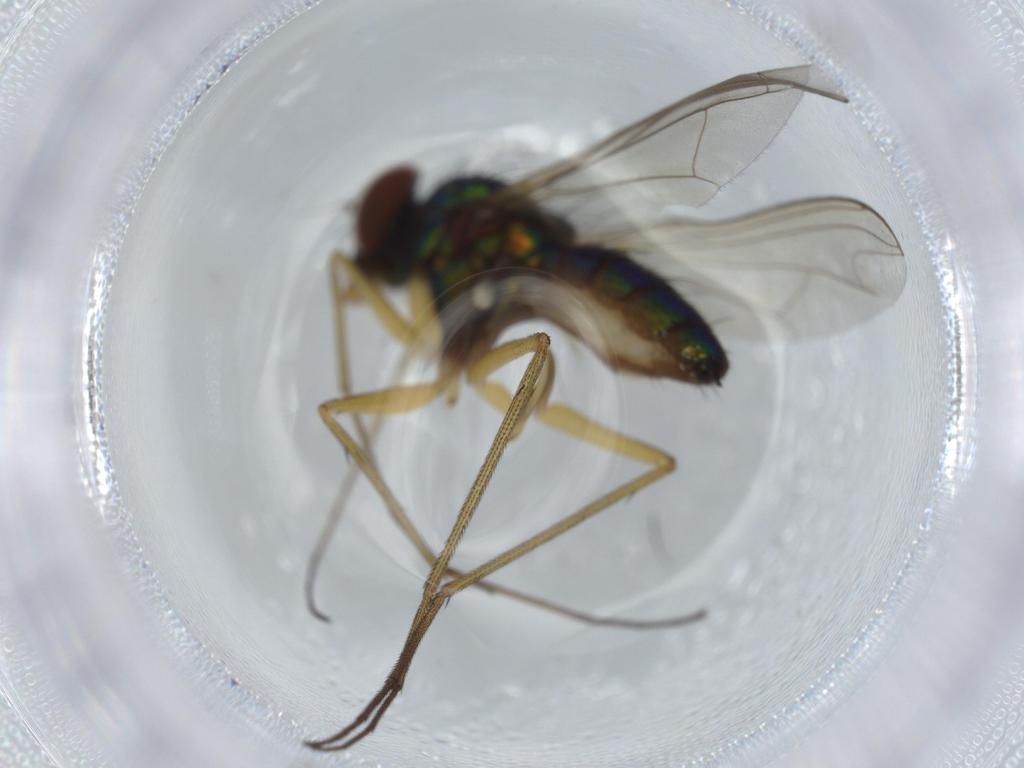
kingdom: Animalia
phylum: Arthropoda
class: Insecta
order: Diptera
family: Dolichopodidae
